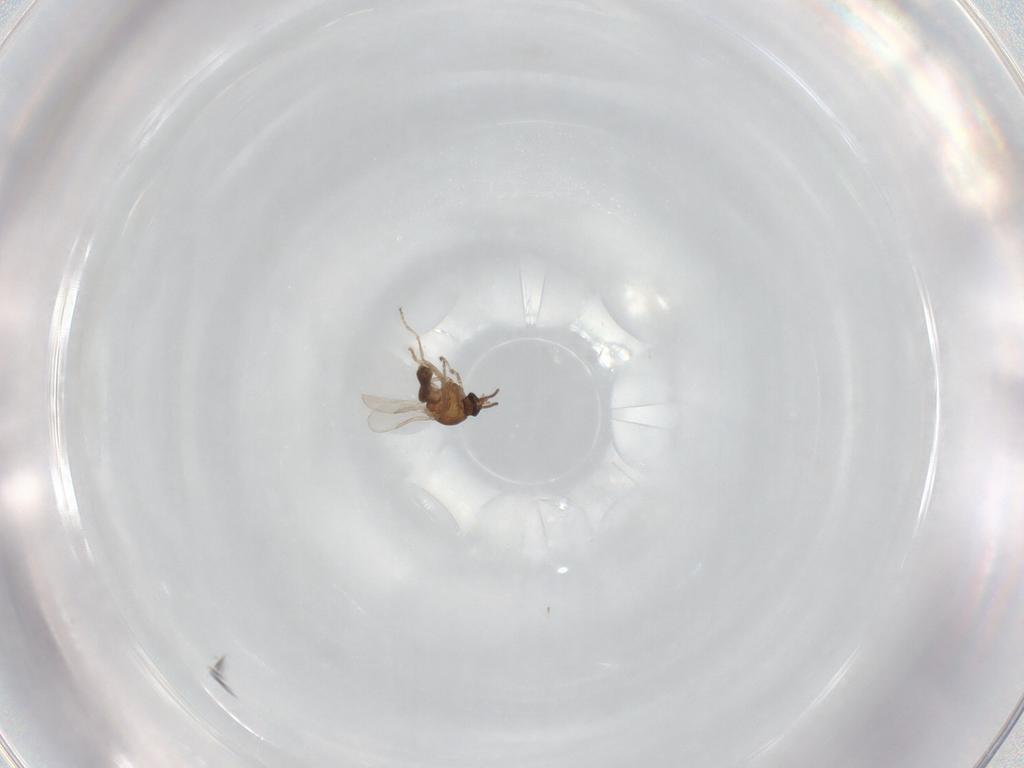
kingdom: Animalia
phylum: Arthropoda
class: Insecta
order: Diptera
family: Ceratopogonidae
